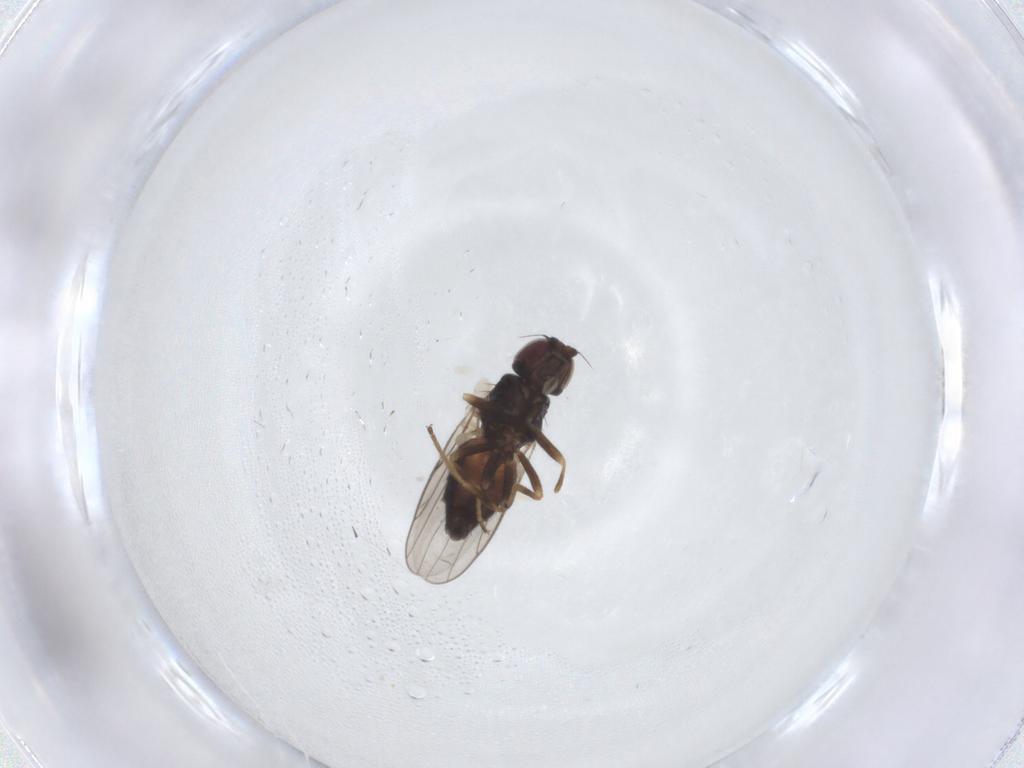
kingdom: Animalia
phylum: Arthropoda
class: Insecta
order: Diptera
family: Chloropidae
